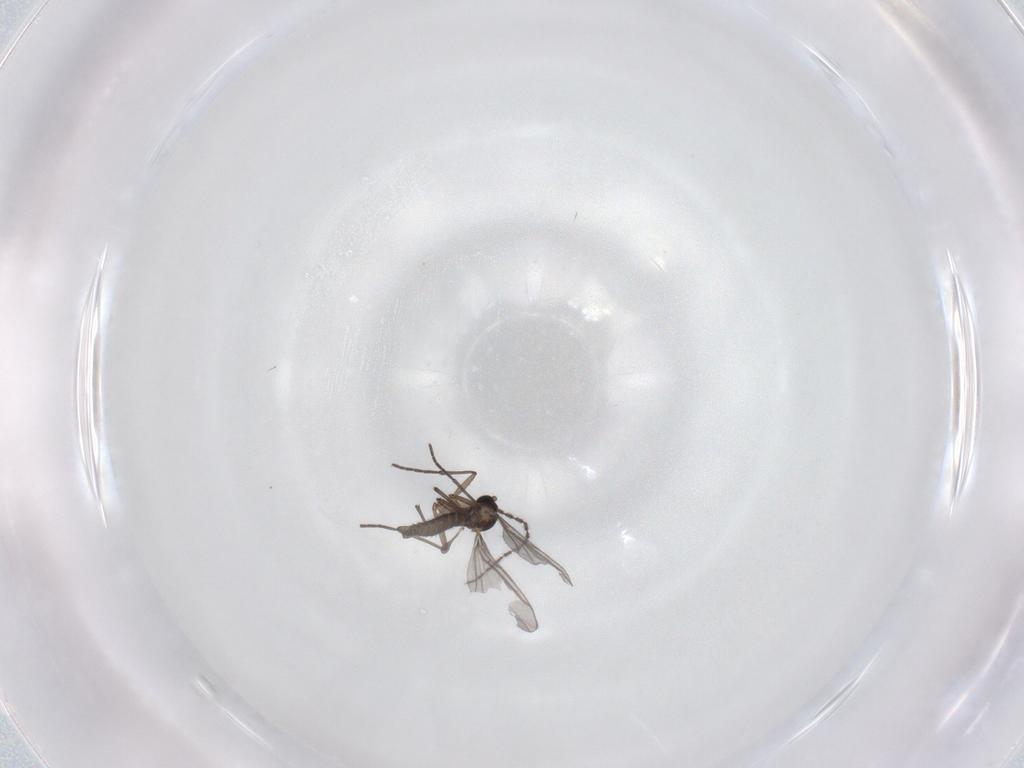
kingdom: Animalia
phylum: Arthropoda
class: Insecta
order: Diptera
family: Sciaridae
